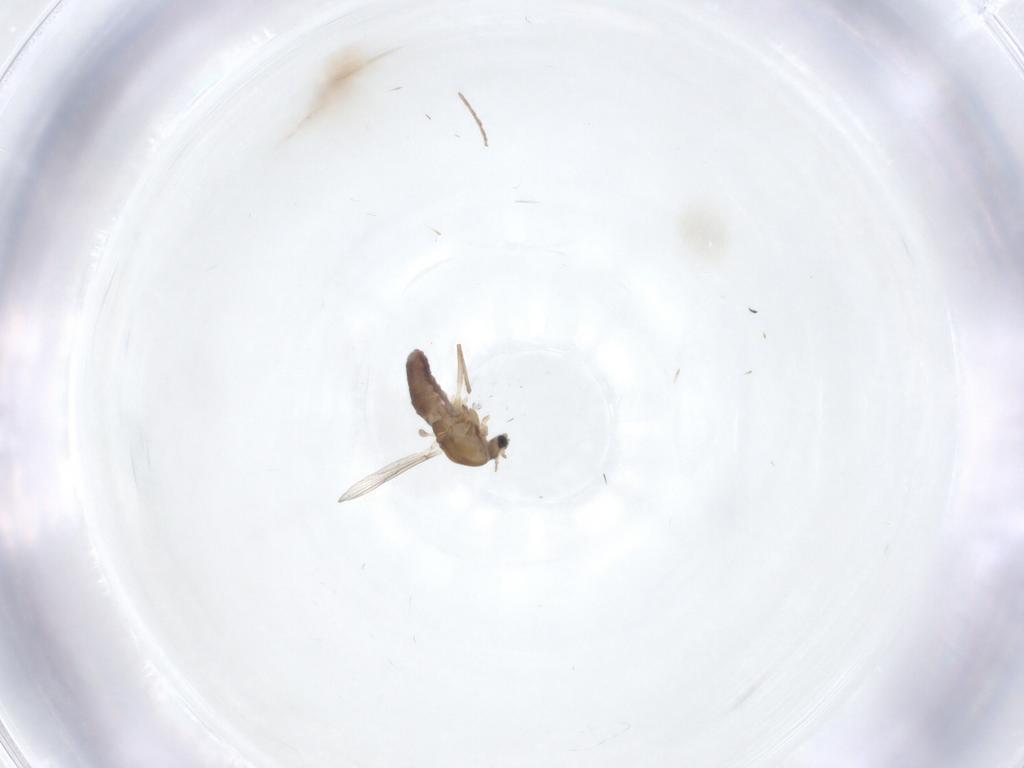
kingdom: Animalia
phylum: Arthropoda
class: Insecta
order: Diptera
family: Chironomidae
